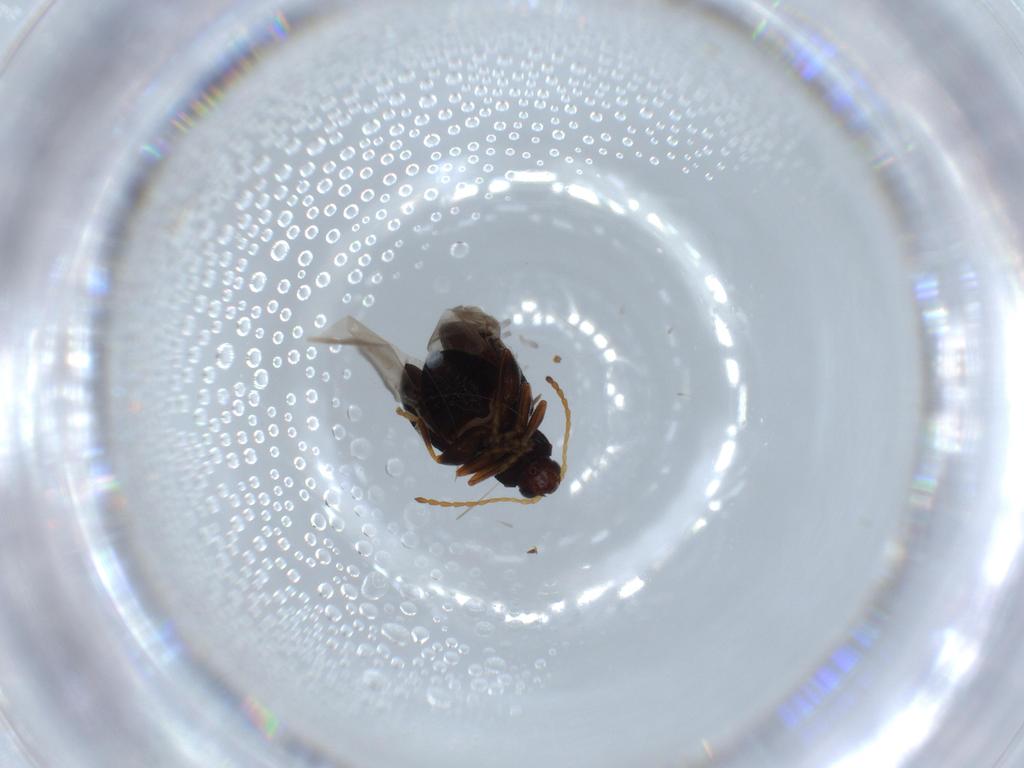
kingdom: Animalia
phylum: Arthropoda
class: Insecta
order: Coleoptera
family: Chrysomelidae
